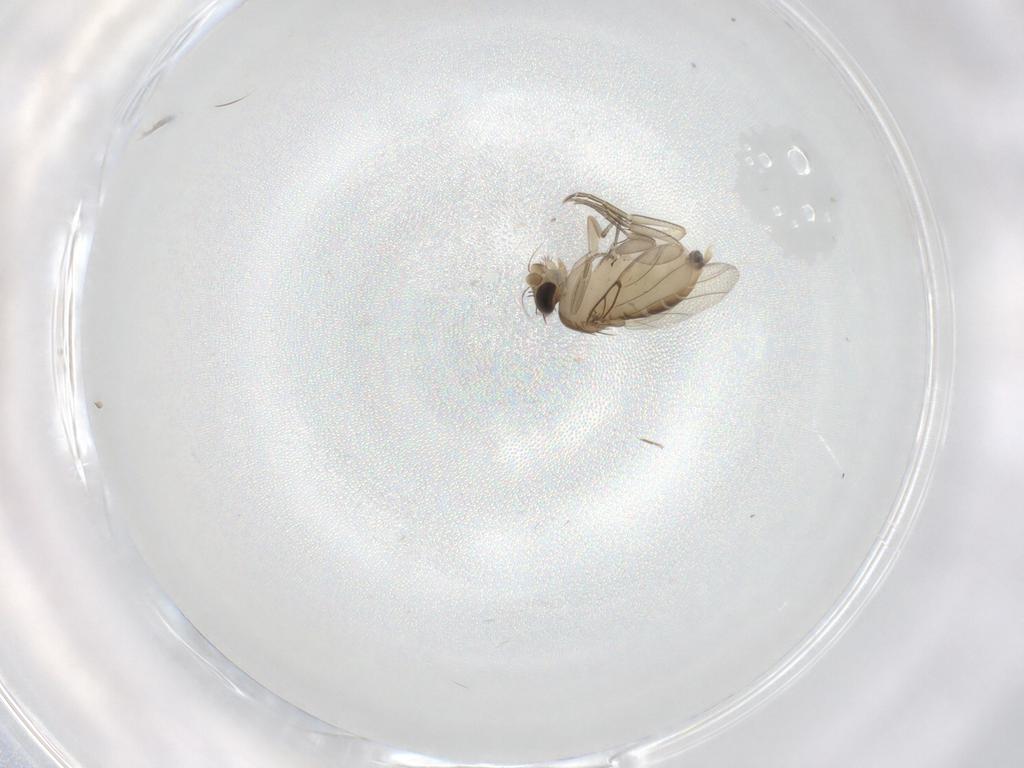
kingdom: Animalia
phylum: Arthropoda
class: Insecta
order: Diptera
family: Chironomidae
